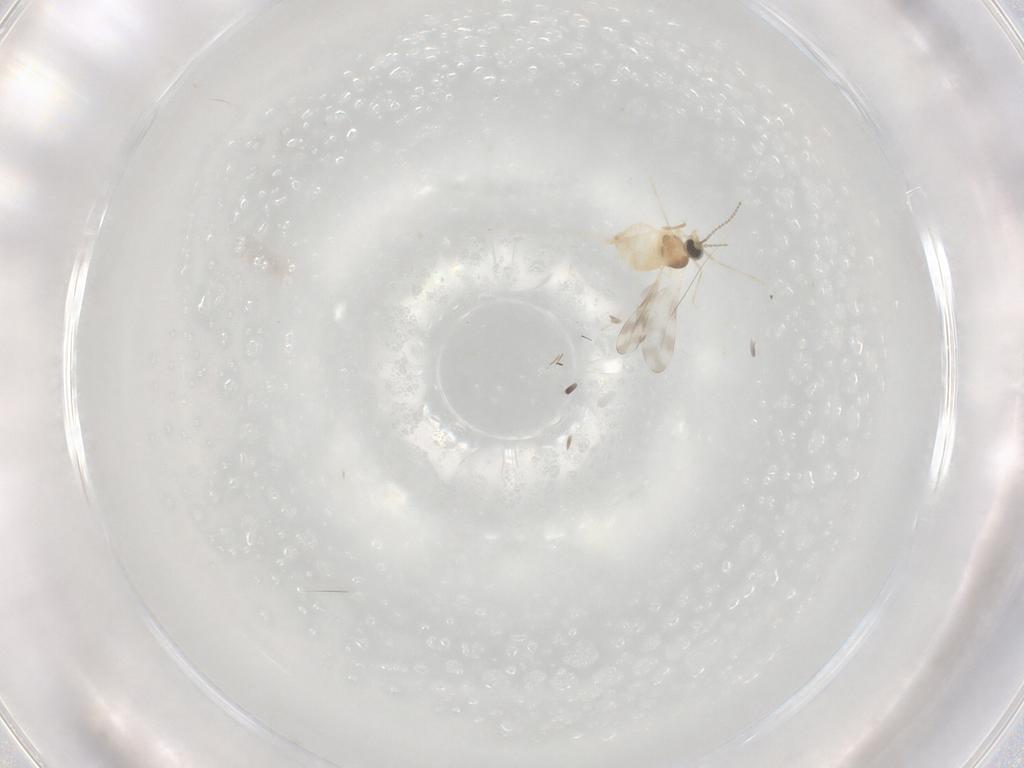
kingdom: Animalia
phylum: Arthropoda
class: Insecta
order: Diptera
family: Cecidomyiidae
